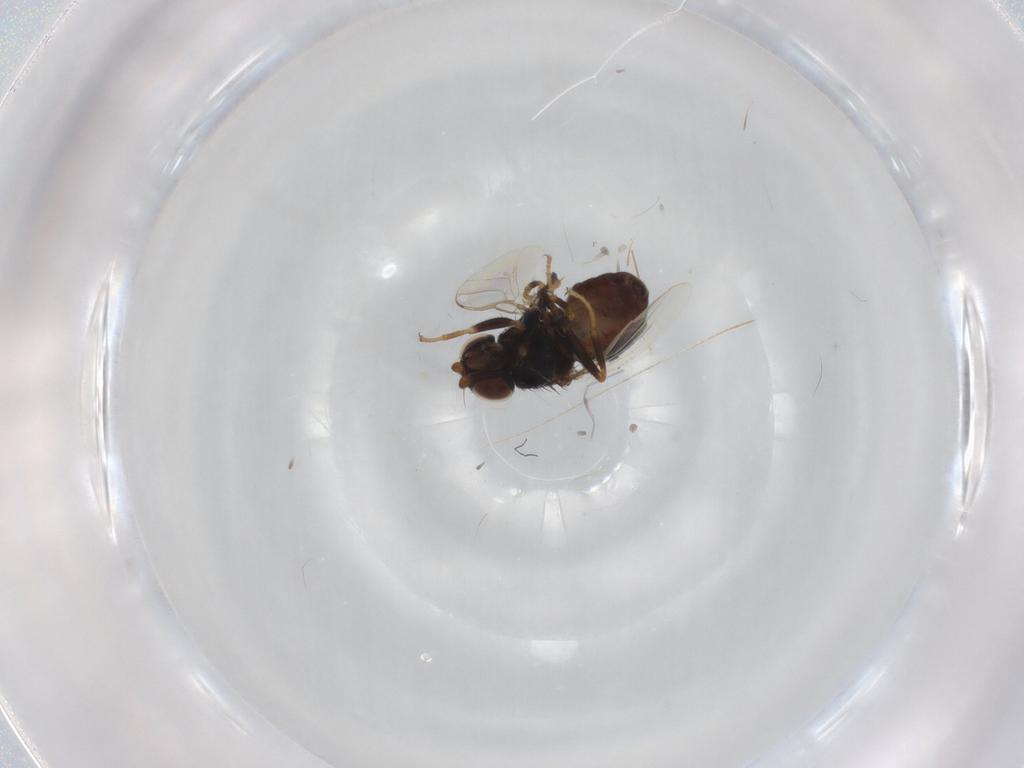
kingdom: Animalia
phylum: Arthropoda
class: Insecta
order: Diptera
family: Chloropidae
